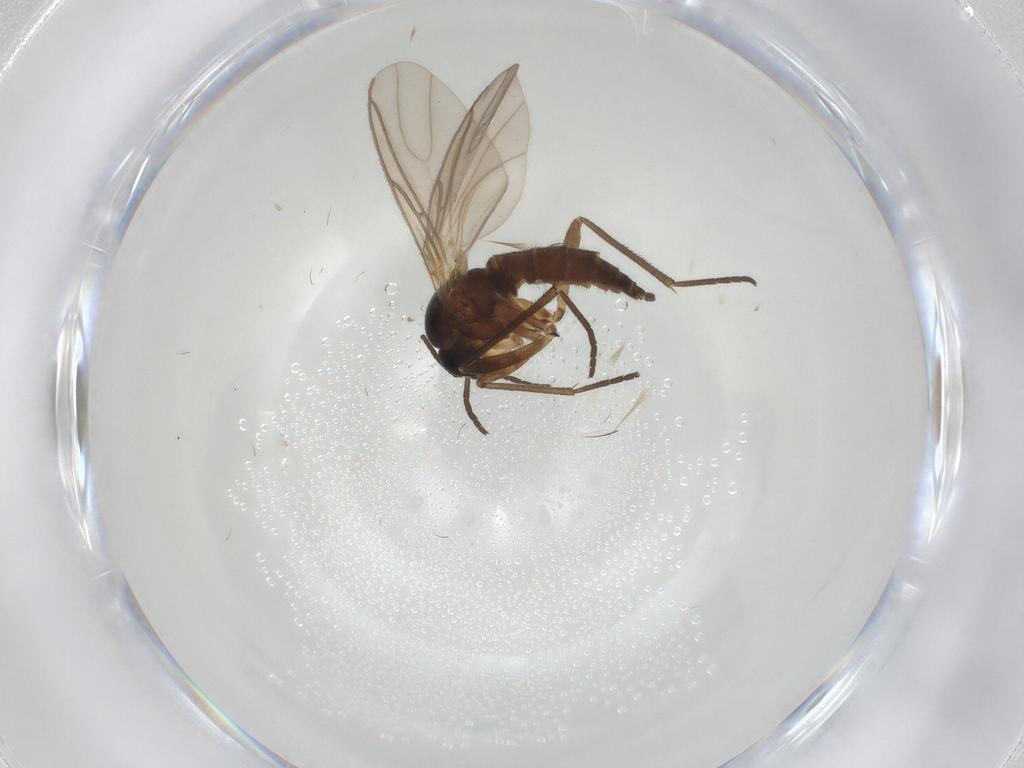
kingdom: Animalia
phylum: Arthropoda
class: Insecta
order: Diptera
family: Sciaridae
